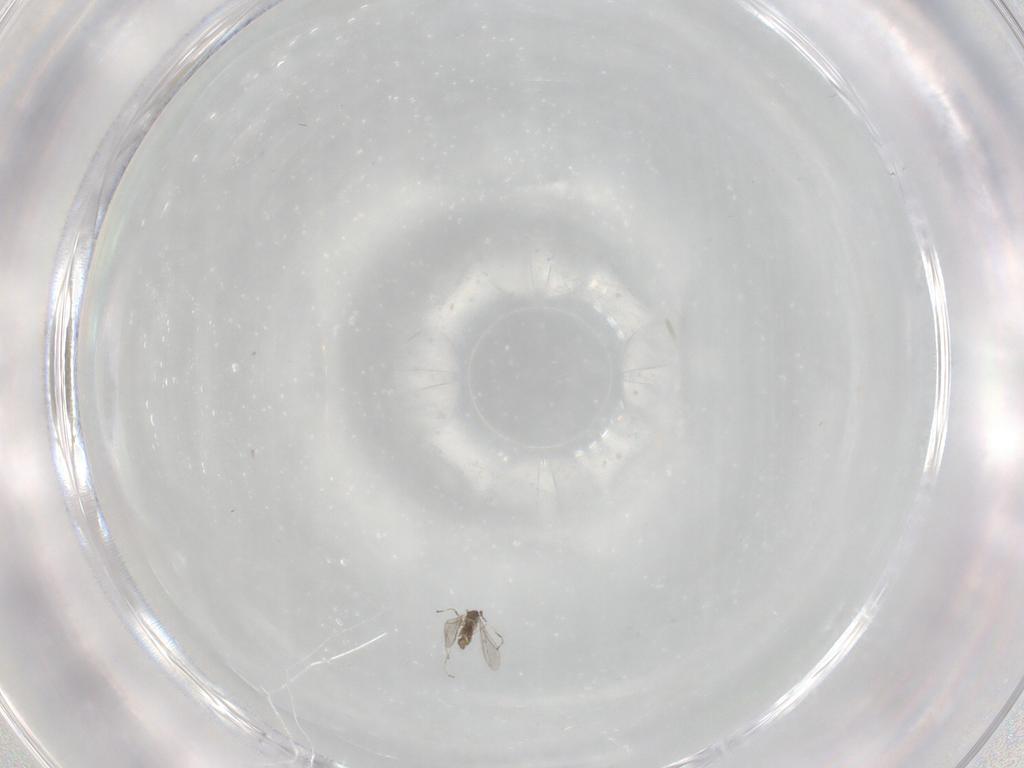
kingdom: Animalia
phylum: Arthropoda
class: Insecta
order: Diptera
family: Cecidomyiidae
